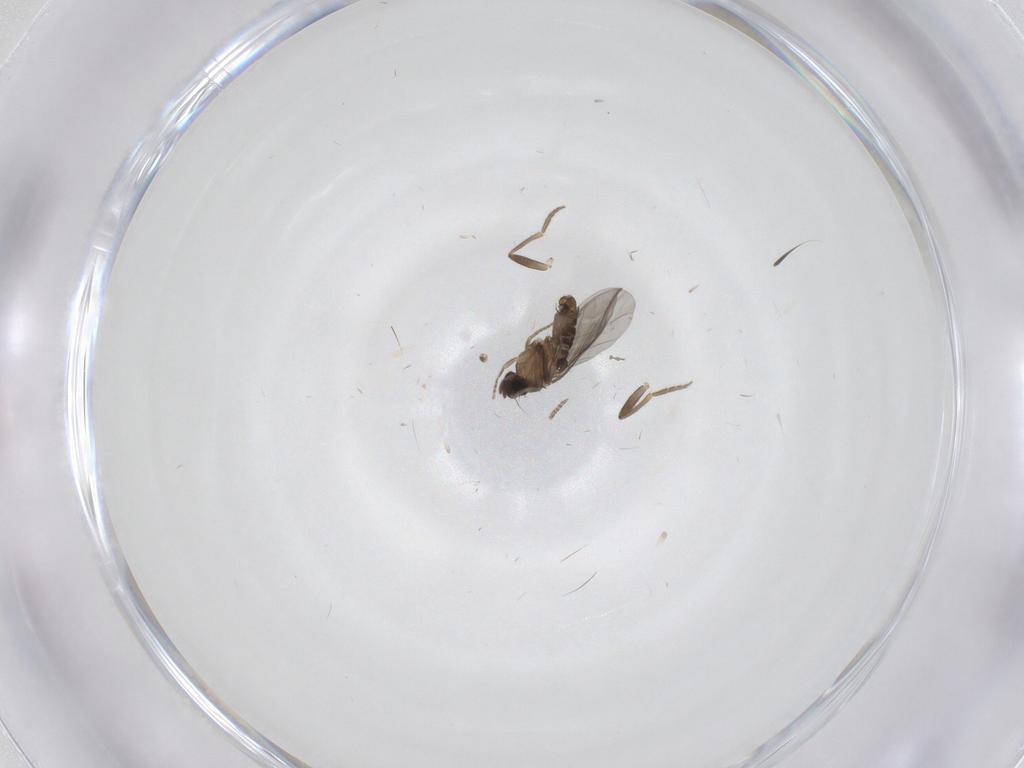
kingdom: Animalia
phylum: Arthropoda
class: Insecta
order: Diptera
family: Cecidomyiidae
